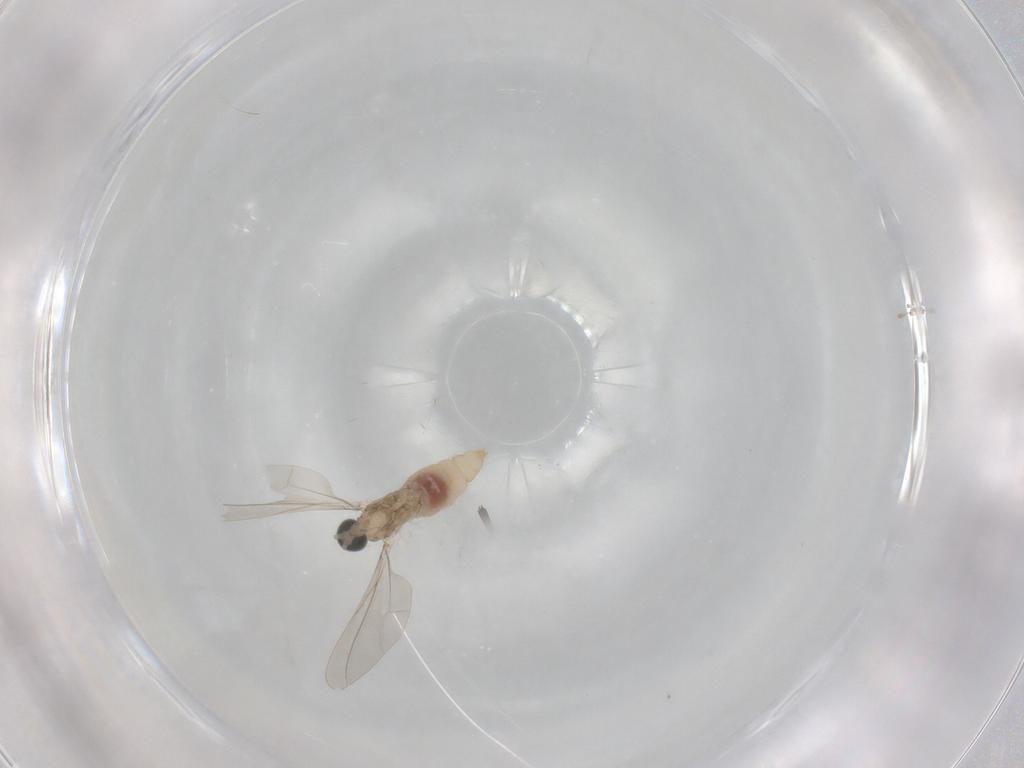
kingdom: Animalia
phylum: Arthropoda
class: Insecta
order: Diptera
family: Cecidomyiidae
